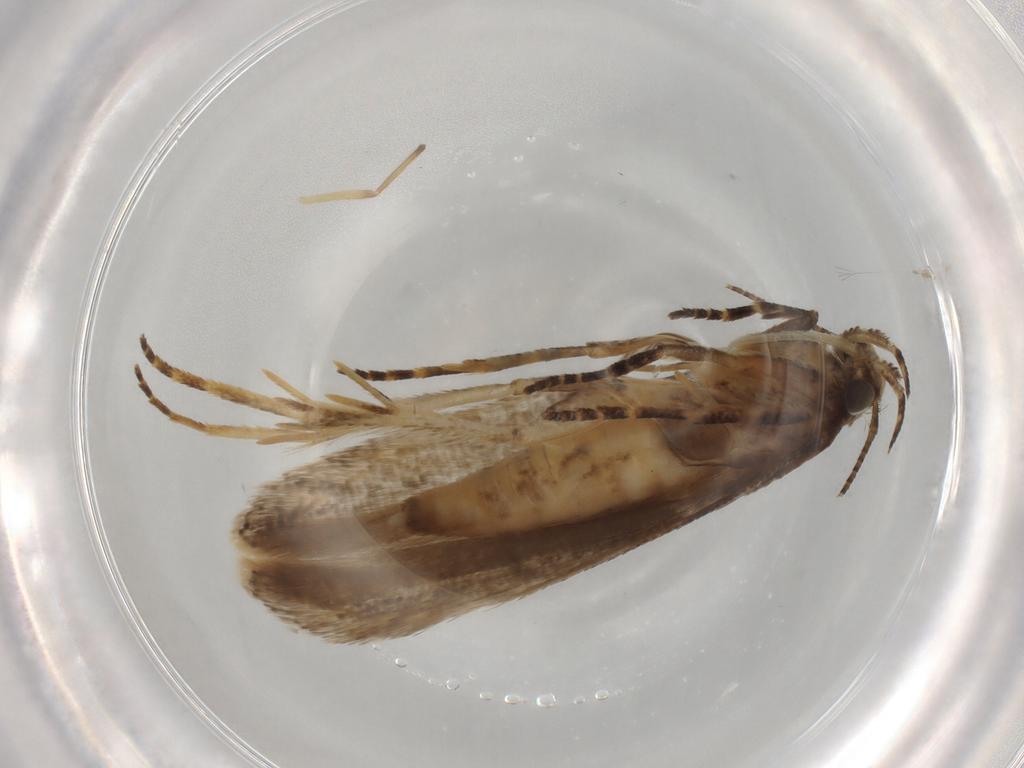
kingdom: Animalia
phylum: Arthropoda
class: Insecta
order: Lepidoptera
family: Gelechiidae
